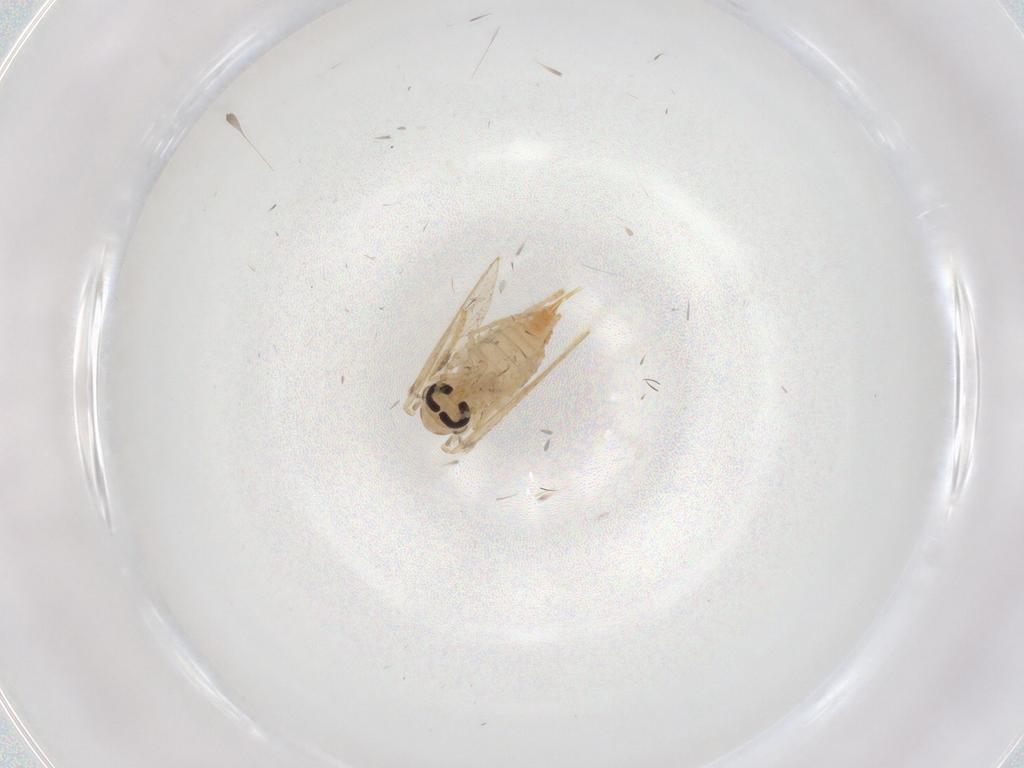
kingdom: Animalia
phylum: Arthropoda
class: Insecta
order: Diptera
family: Psychodidae
